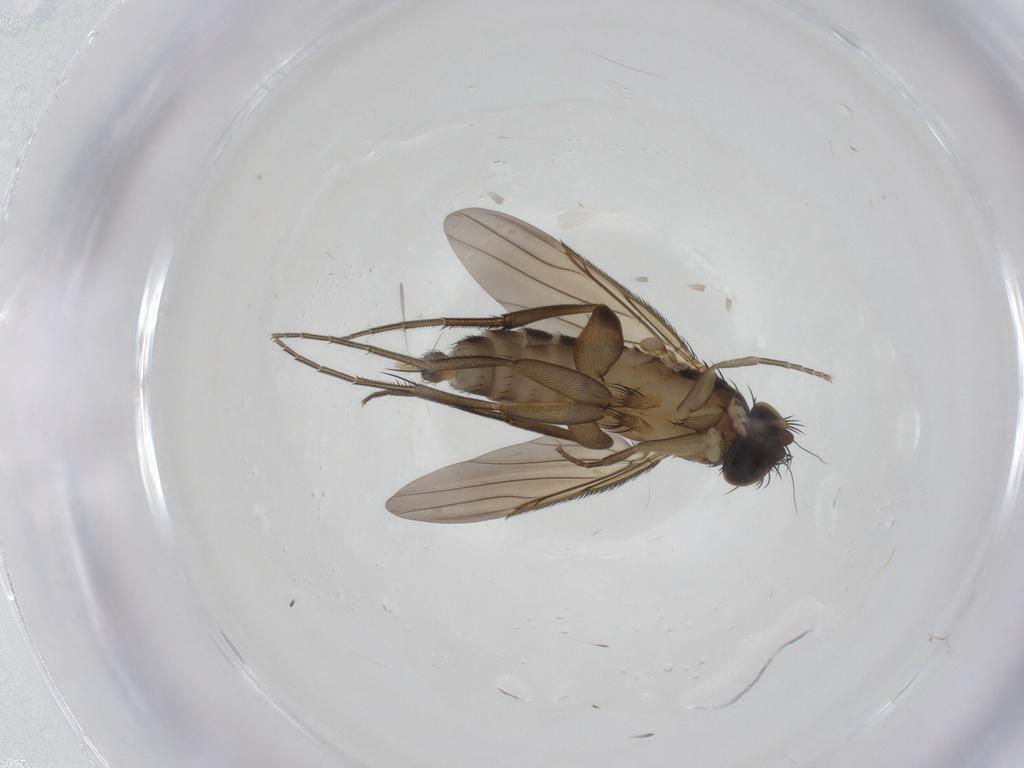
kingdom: Animalia
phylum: Arthropoda
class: Insecta
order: Diptera
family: Phoridae
